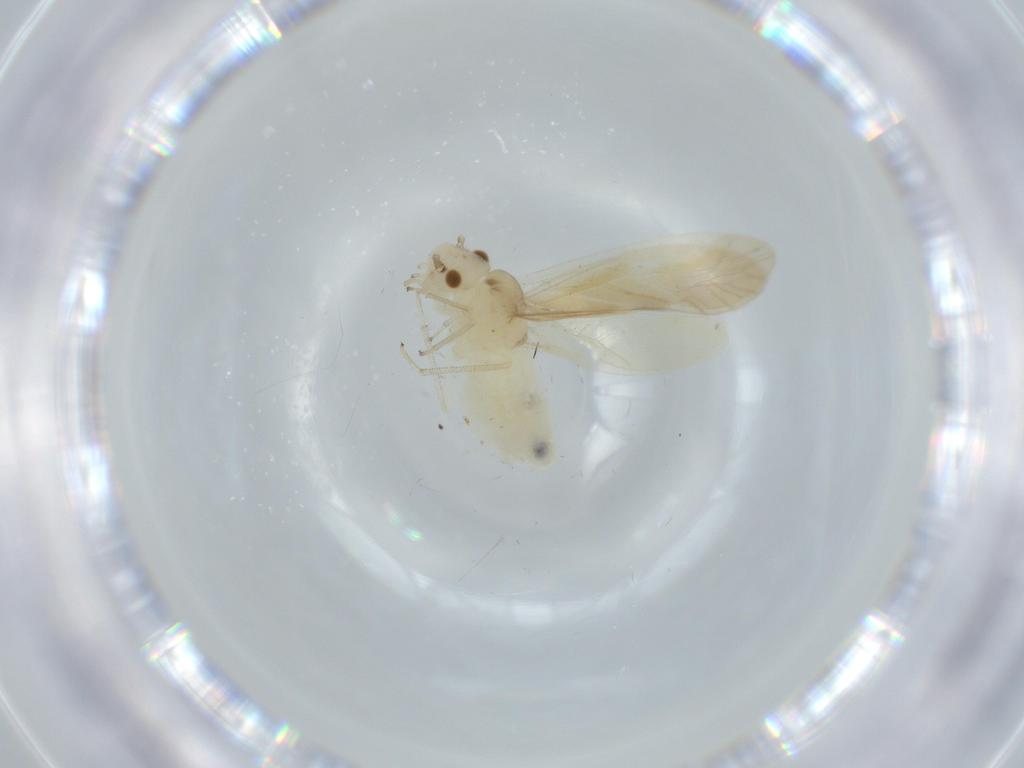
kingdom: Animalia
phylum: Arthropoda
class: Insecta
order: Psocodea
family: Caeciliusidae
